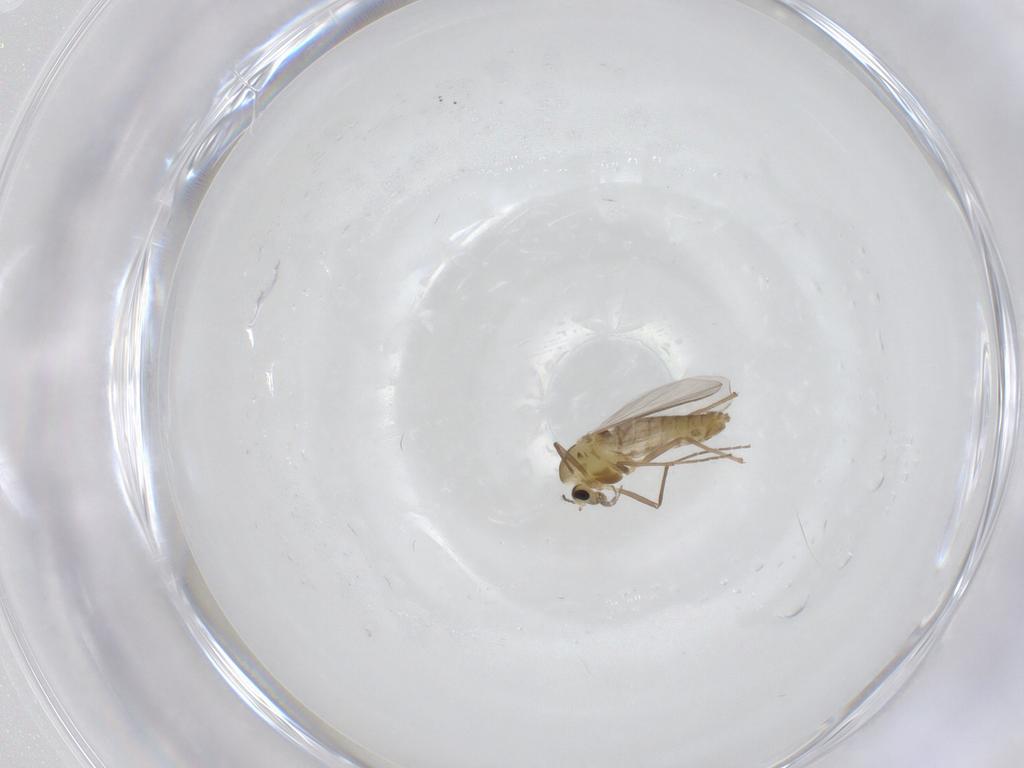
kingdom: Animalia
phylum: Arthropoda
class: Insecta
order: Diptera
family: Chironomidae
